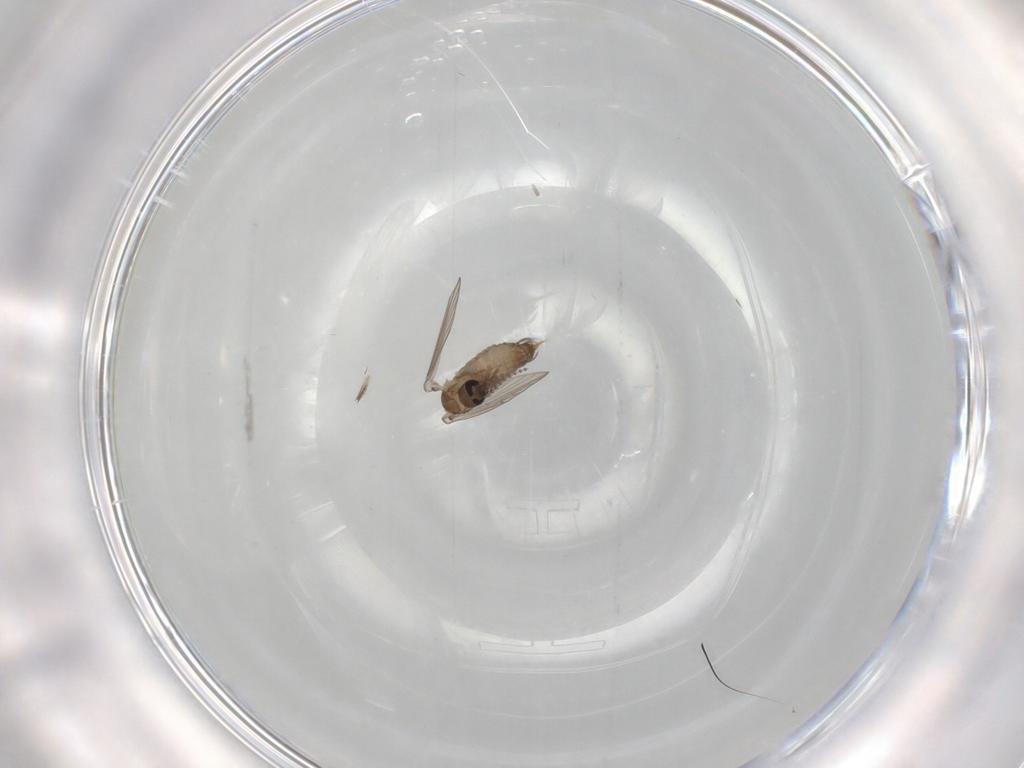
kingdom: Animalia
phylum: Arthropoda
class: Insecta
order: Diptera
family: Psychodidae
